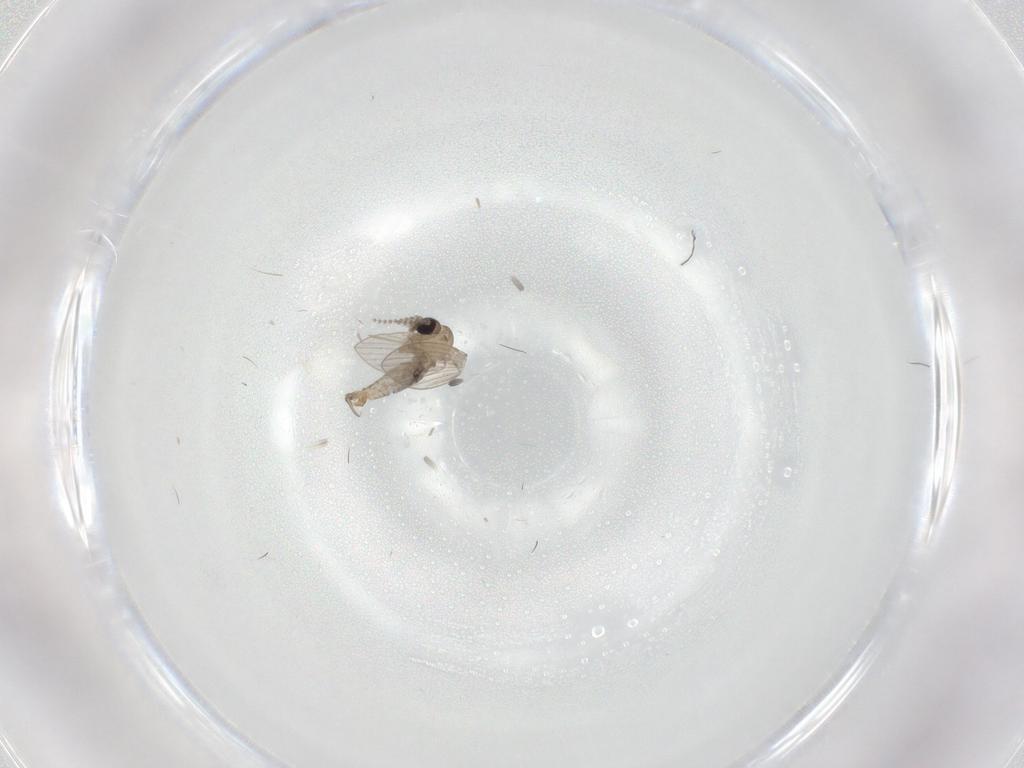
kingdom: Animalia
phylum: Arthropoda
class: Insecta
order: Diptera
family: Psychodidae
